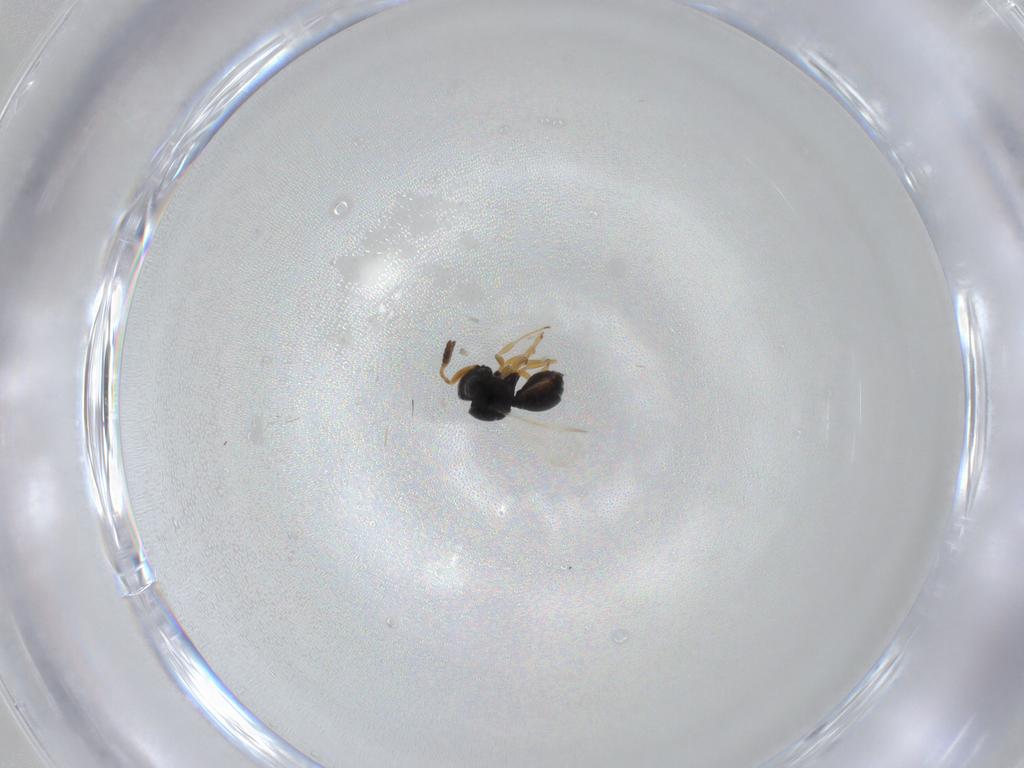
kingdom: Animalia
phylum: Arthropoda
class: Insecta
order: Hymenoptera
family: Scelionidae
